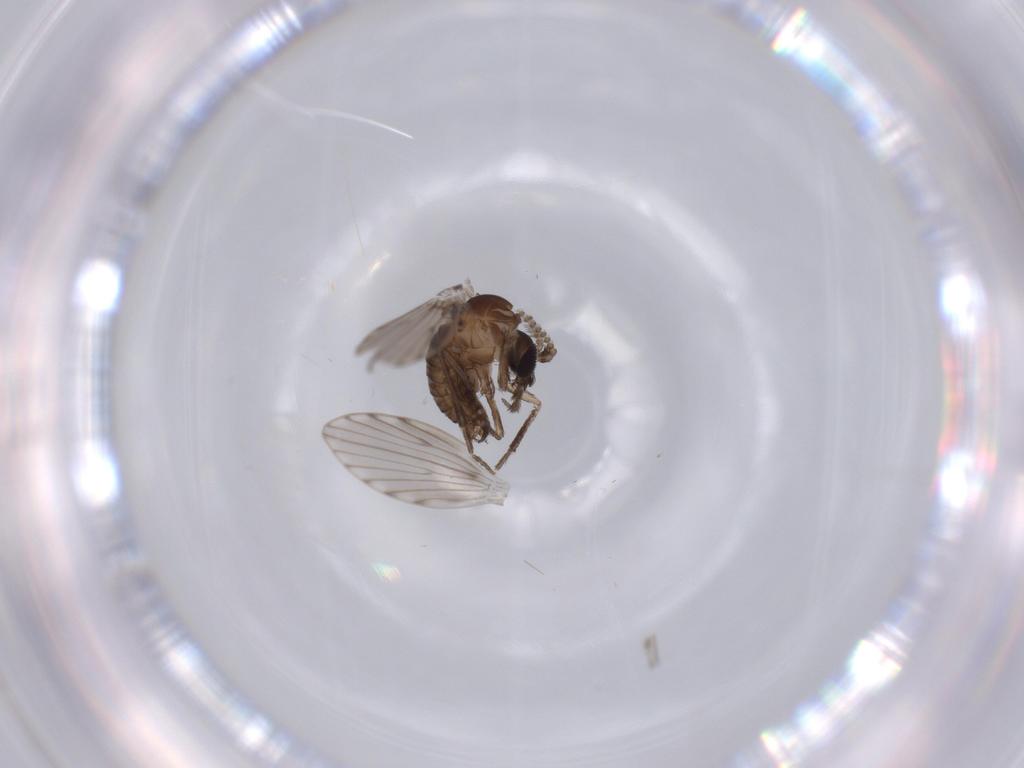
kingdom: Animalia
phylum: Arthropoda
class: Insecta
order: Diptera
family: Psychodidae
